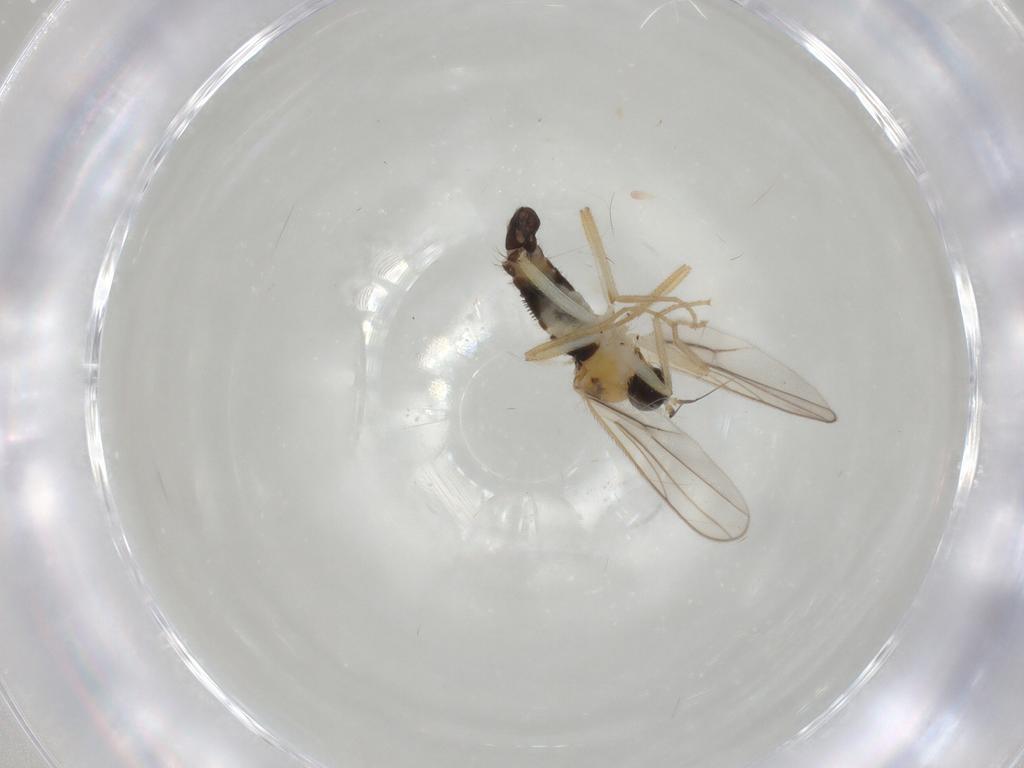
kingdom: Animalia
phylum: Arthropoda
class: Insecta
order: Diptera
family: Hybotidae
